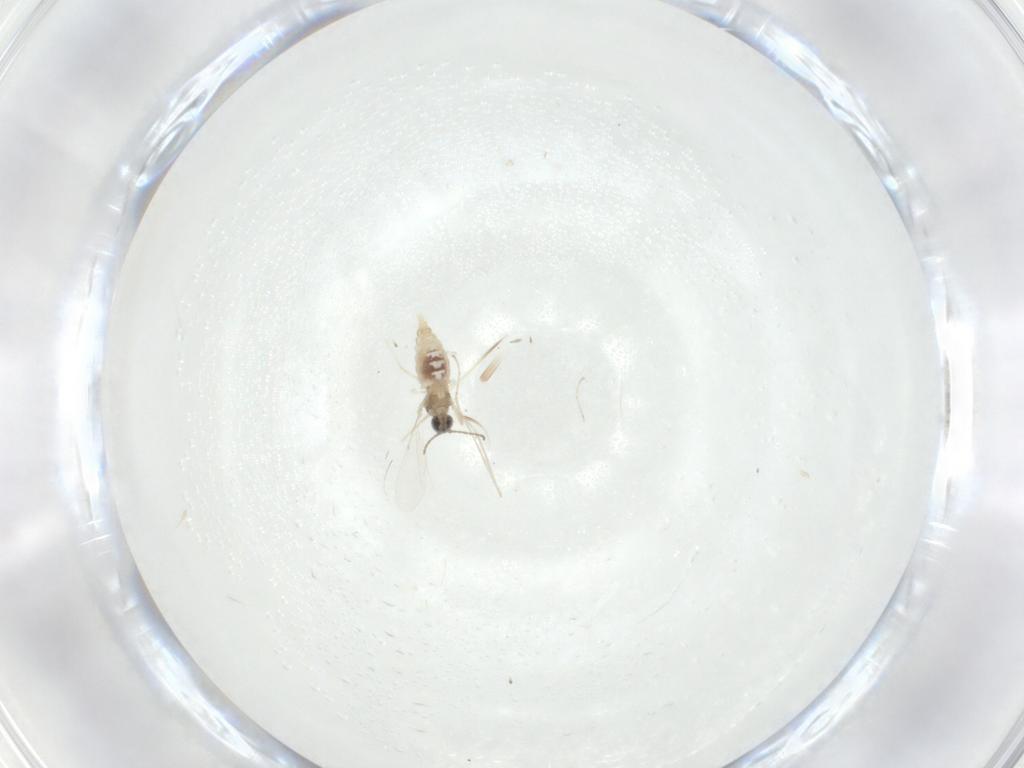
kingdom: Animalia
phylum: Arthropoda
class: Insecta
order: Diptera
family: Cecidomyiidae
